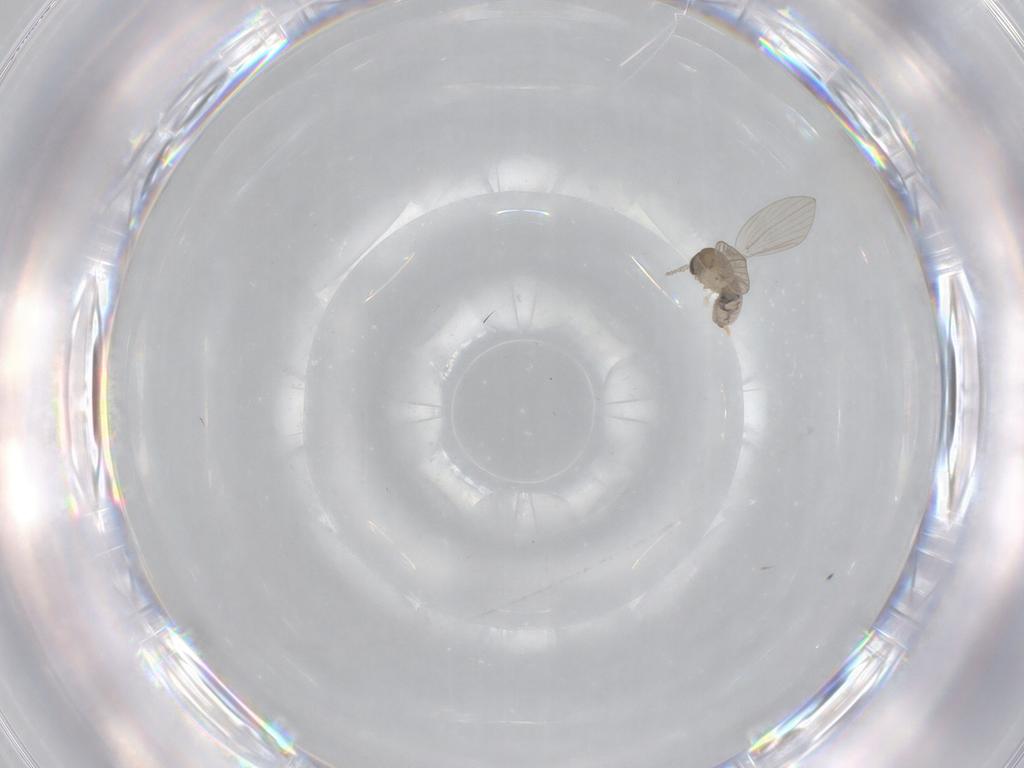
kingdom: Animalia
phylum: Arthropoda
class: Insecta
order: Diptera
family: Psychodidae
